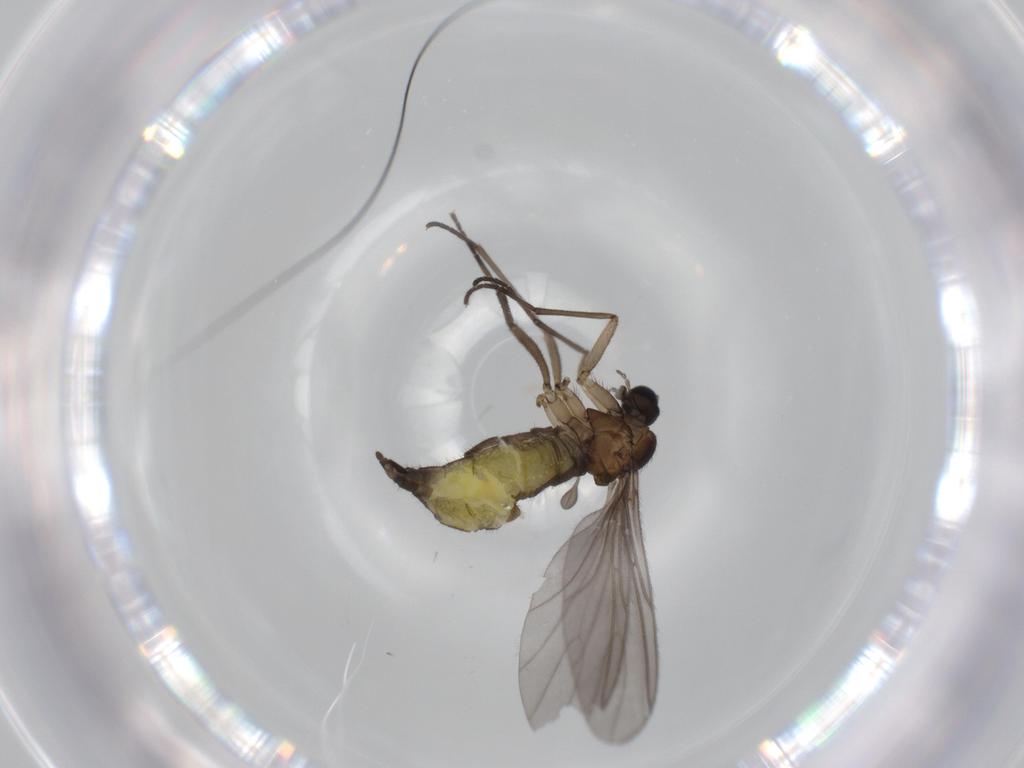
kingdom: Animalia
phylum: Arthropoda
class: Insecta
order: Diptera
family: Sciaridae
